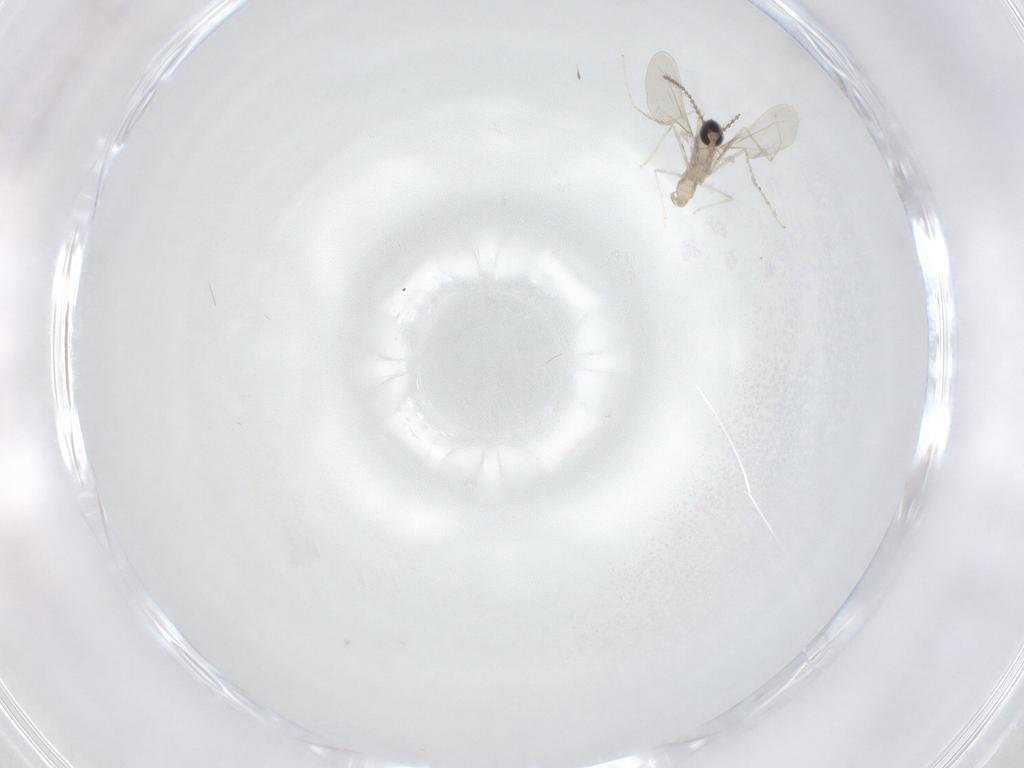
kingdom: Animalia
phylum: Arthropoda
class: Insecta
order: Diptera
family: Cecidomyiidae
